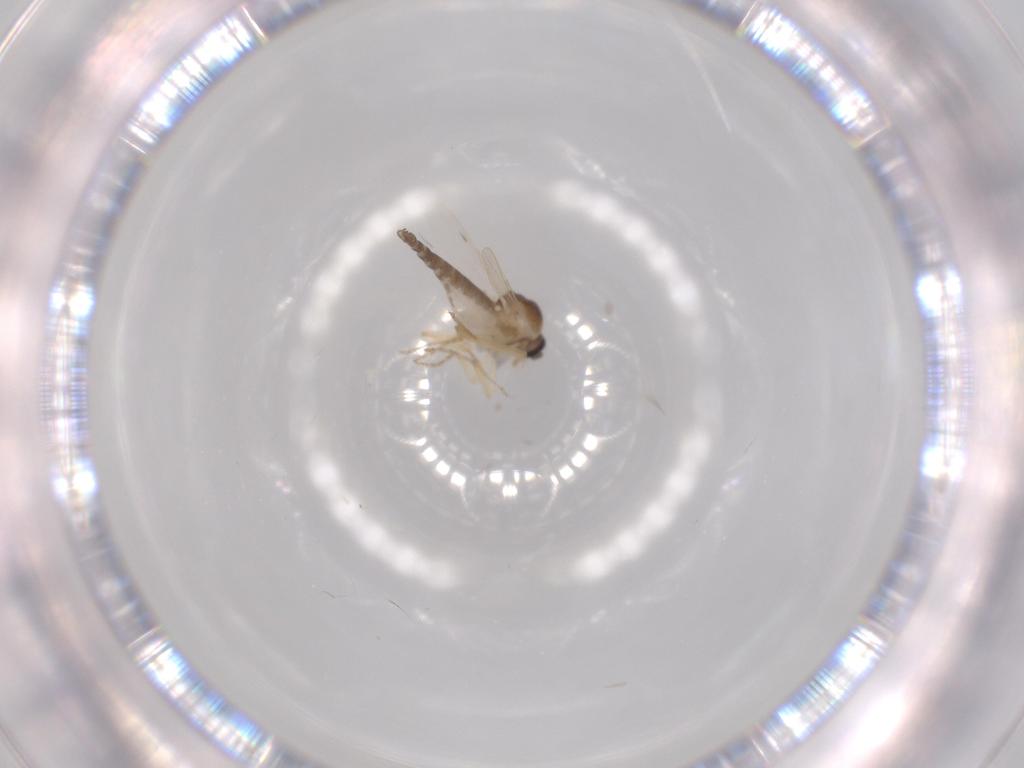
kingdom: Animalia
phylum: Arthropoda
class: Insecta
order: Diptera
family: Ceratopogonidae
